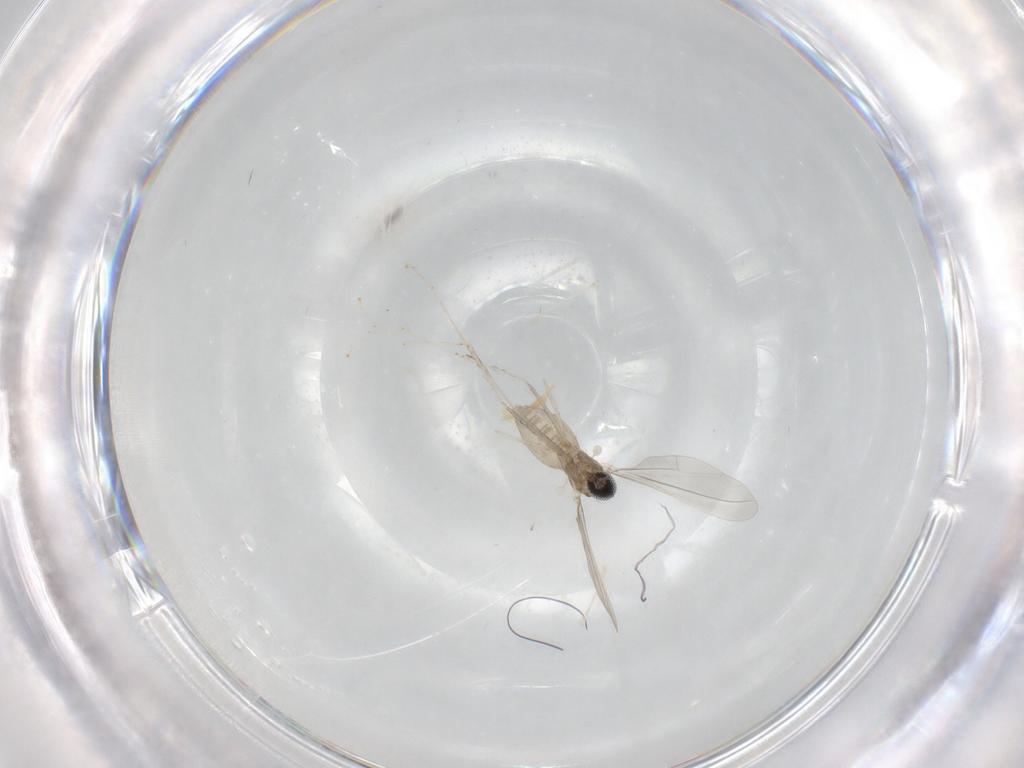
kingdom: Animalia
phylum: Arthropoda
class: Insecta
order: Diptera
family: Cecidomyiidae
